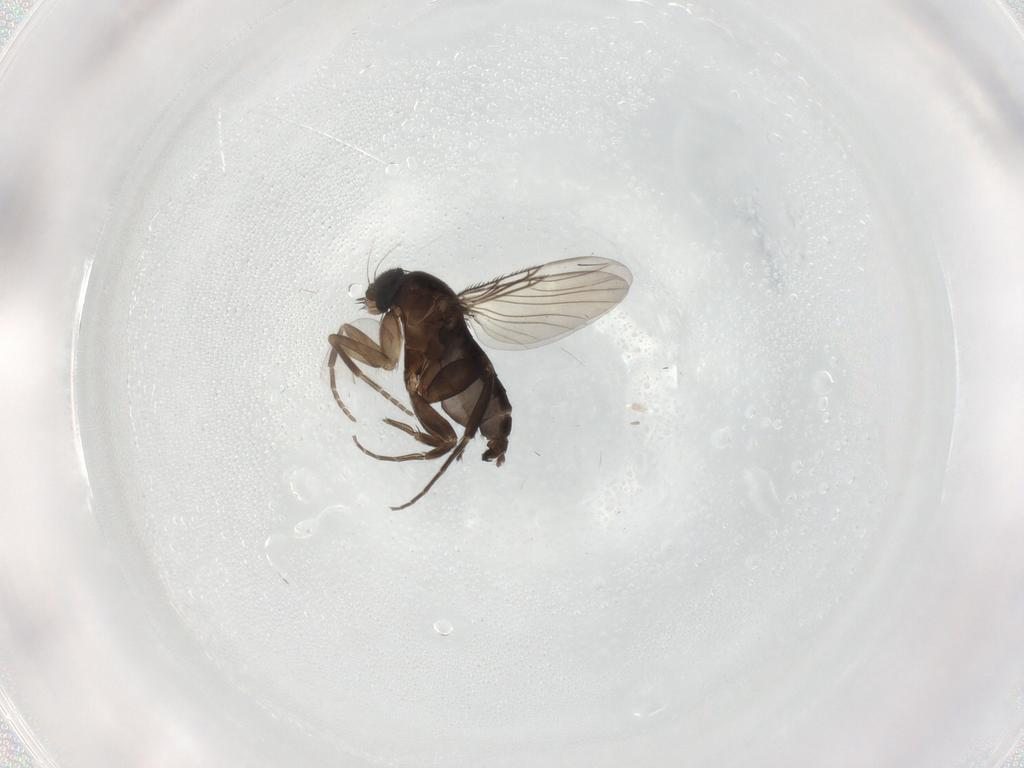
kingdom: Animalia
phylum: Arthropoda
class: Insecta
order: Diptera
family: Phoridae
